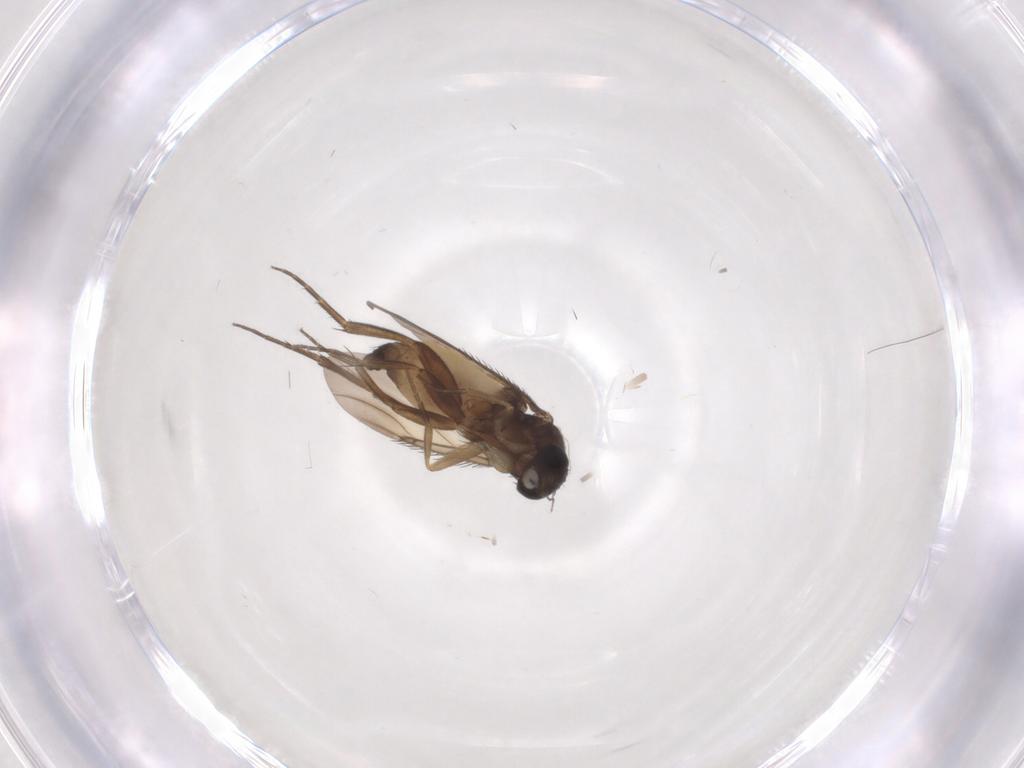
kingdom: Animalia
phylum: Arthropoda
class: Insecta
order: Diptera
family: Phoridae
